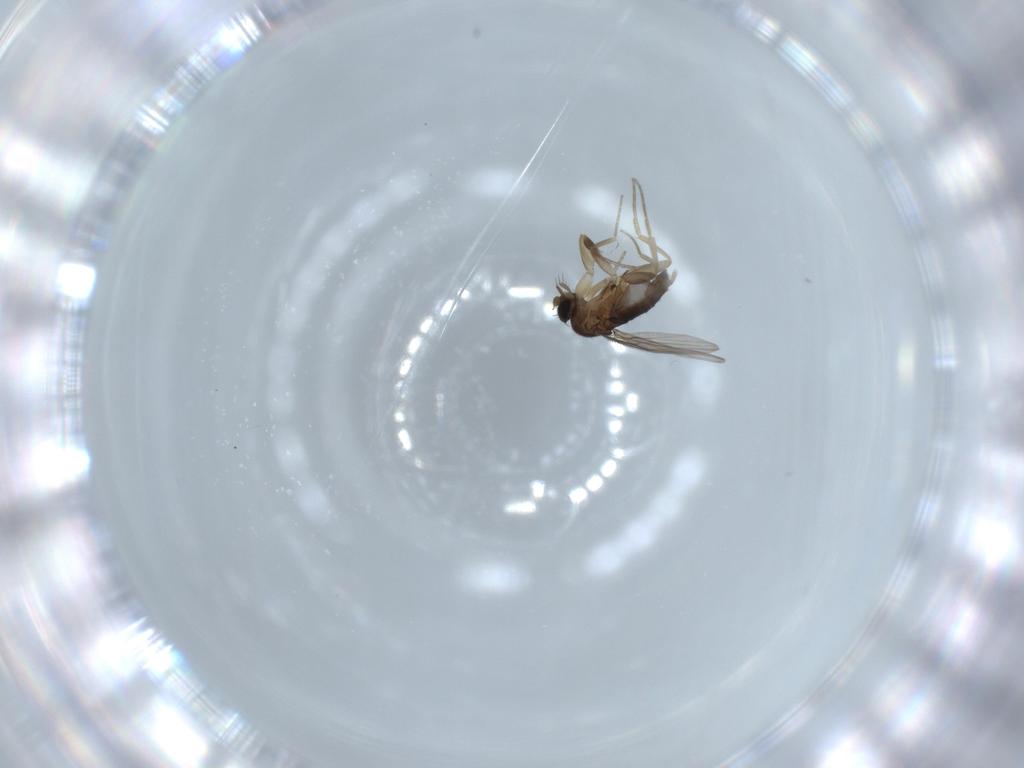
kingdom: Animalia
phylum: Arthropoda
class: Insecta
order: Diptera
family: Phoridae
